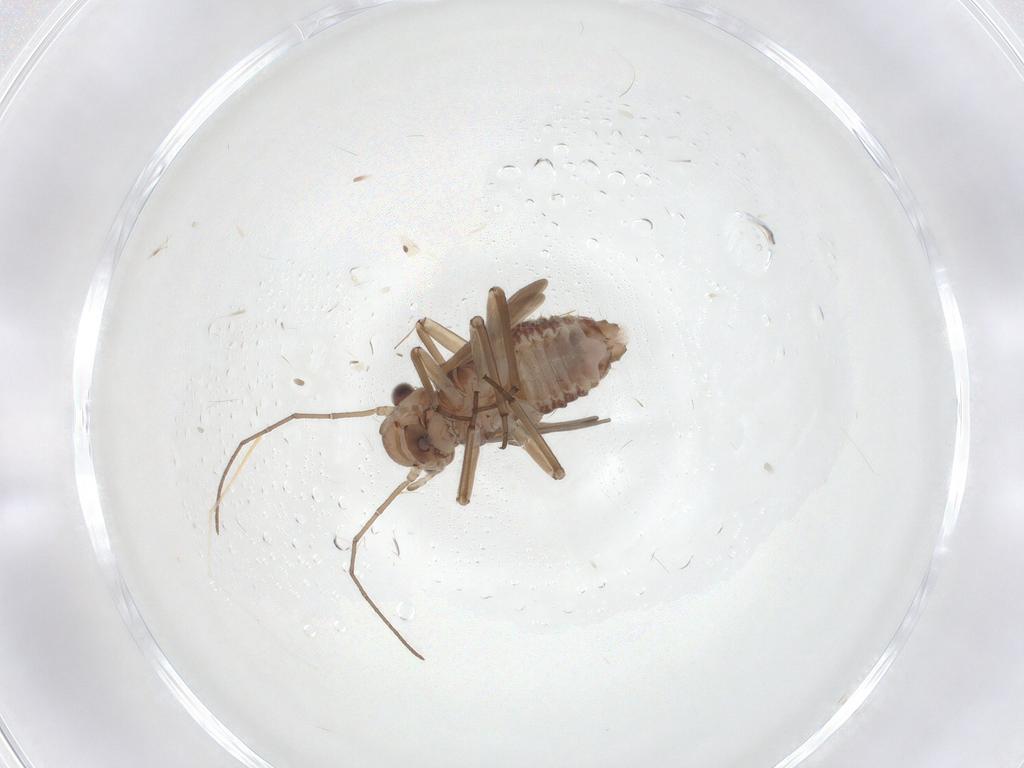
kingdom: Animalia
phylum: Arthropoda
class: Insecta
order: Psocodea
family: Psocidae
